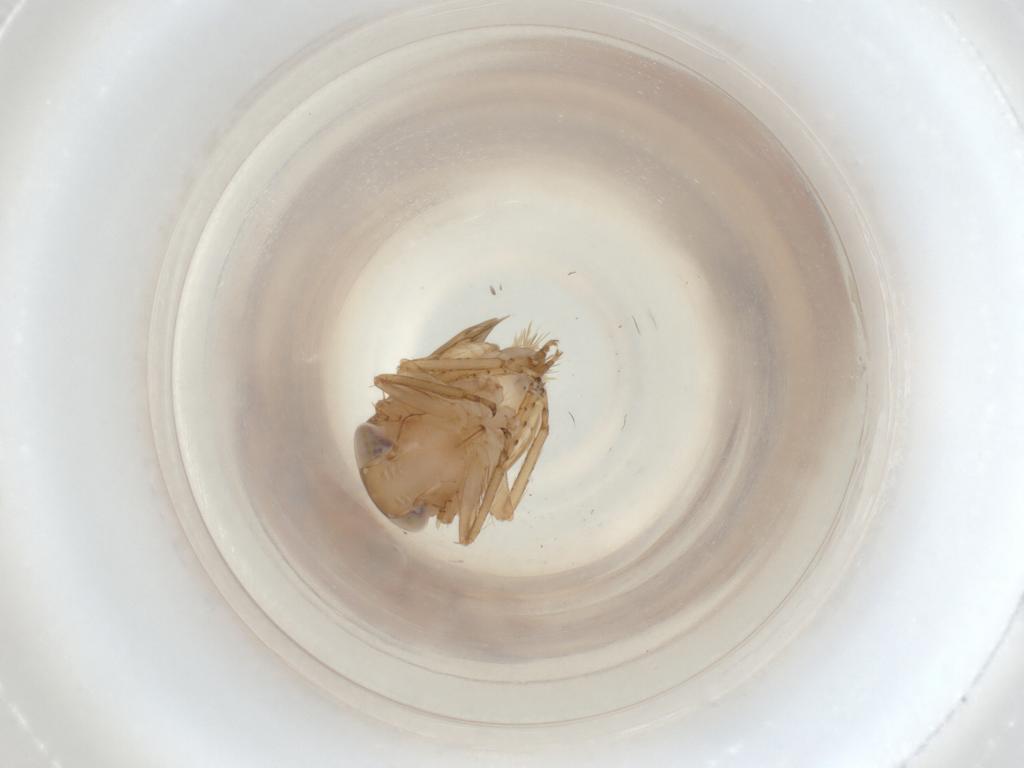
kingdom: Animalia
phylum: Arthropoda
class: Insecta
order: Hemiptera
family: Cicadellidae
